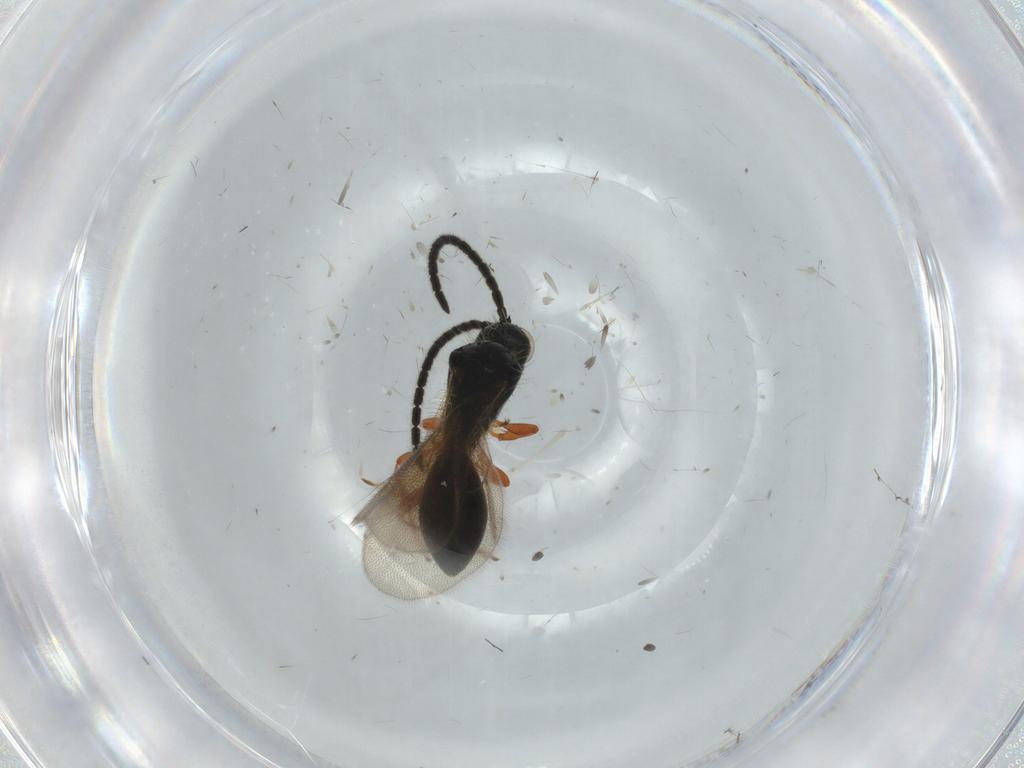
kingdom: Animalia
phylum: Arthropoda
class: Insecta
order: Hymenoptera
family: Diapriidae
